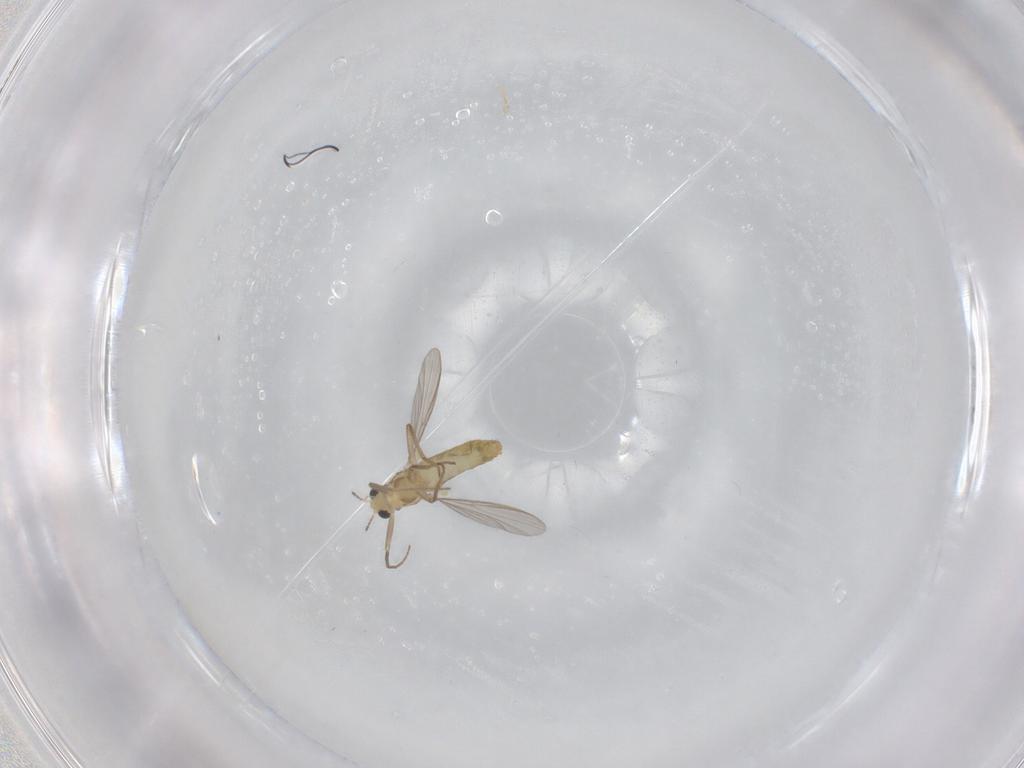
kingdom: Animalia
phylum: Arthropoda
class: Insecta
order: Diptera
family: Chironomidae
